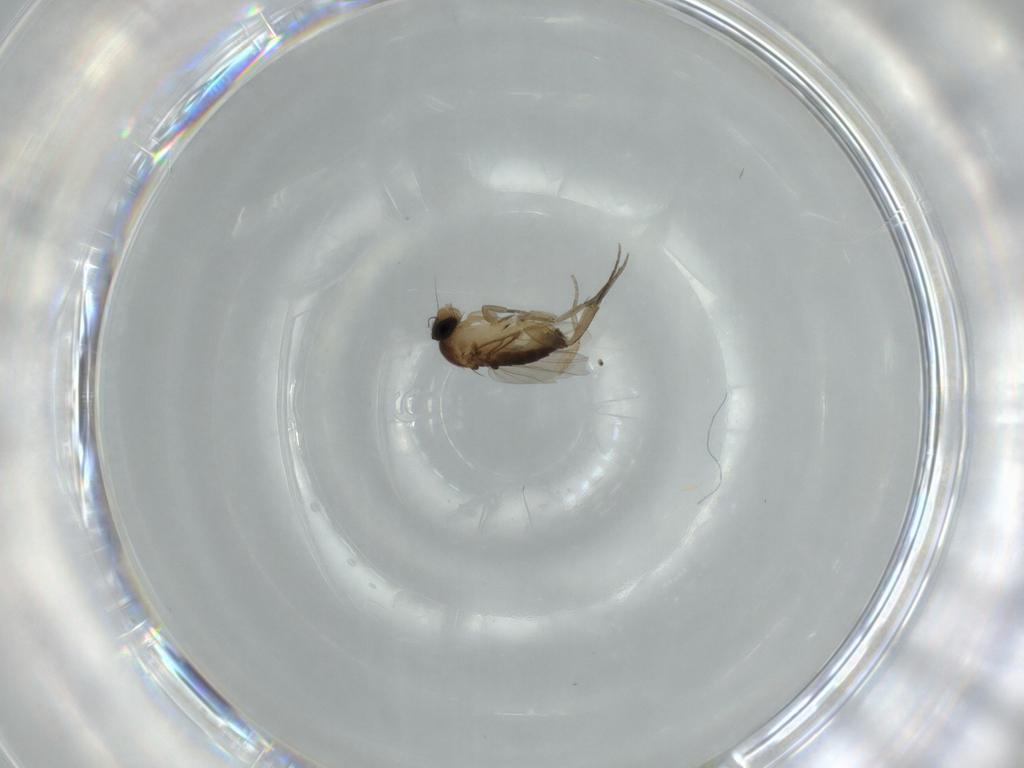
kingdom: Animalia
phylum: Arthropoda
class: Insecta
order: Diptera
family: Phoridae
